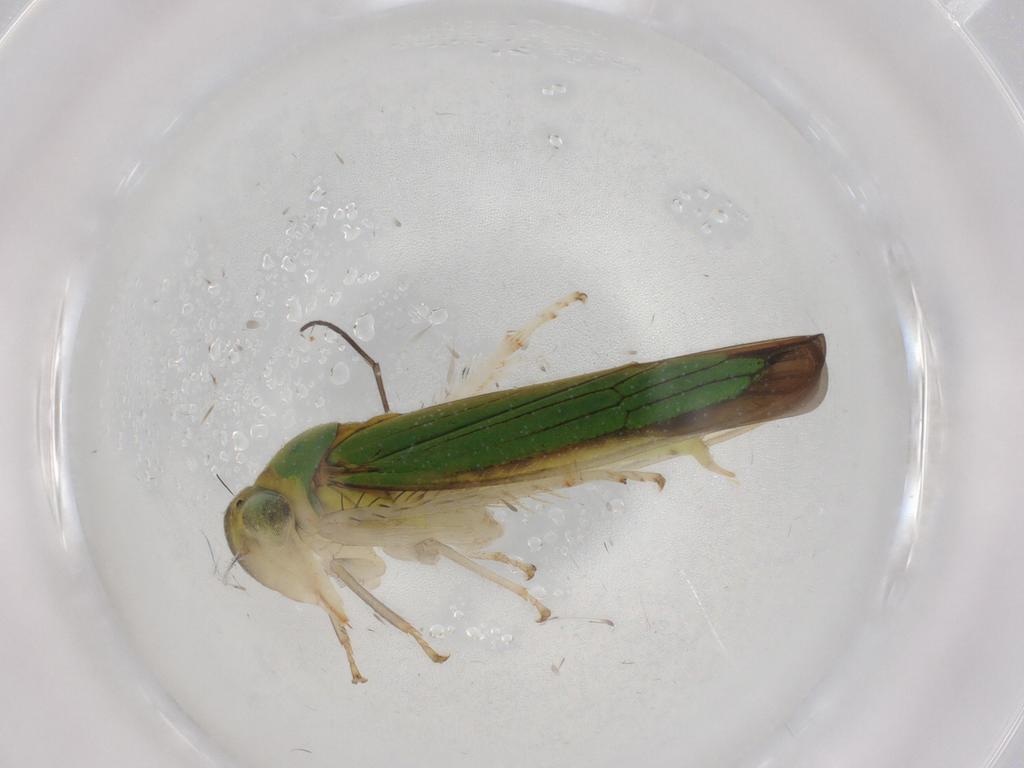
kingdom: Animalia
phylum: Arthropoda
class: Insecta
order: Hemiptera
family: Cicadellidae
